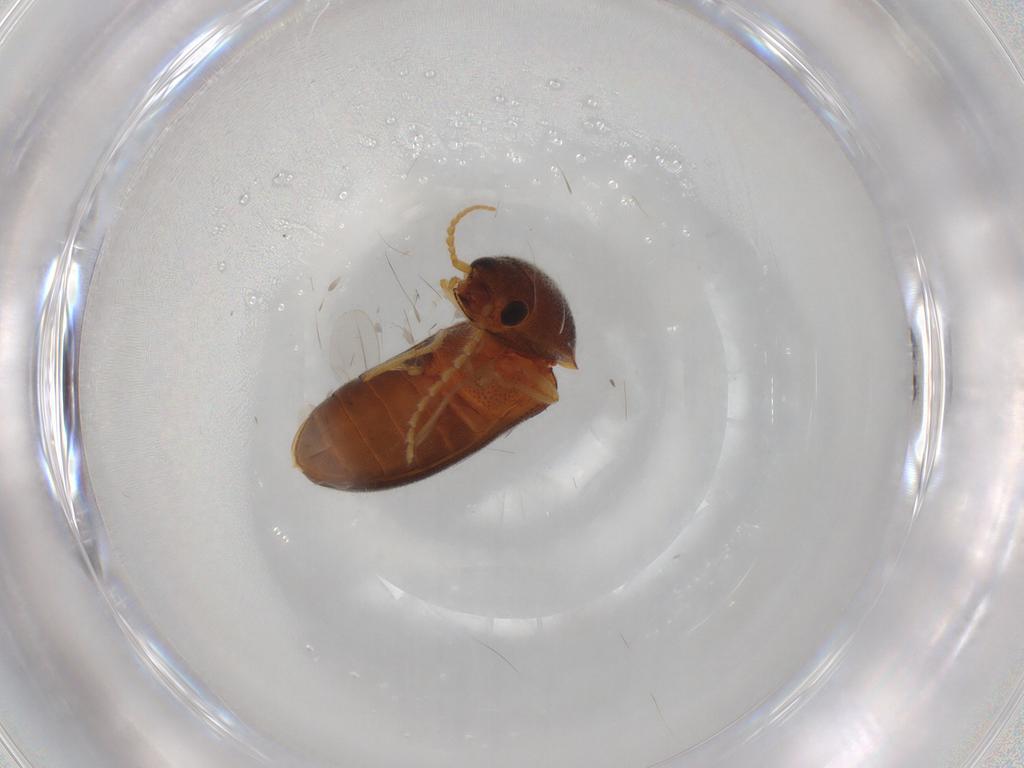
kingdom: Animalia
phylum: Arthropoda
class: Insecta
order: Coleoptera
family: Elateridae
